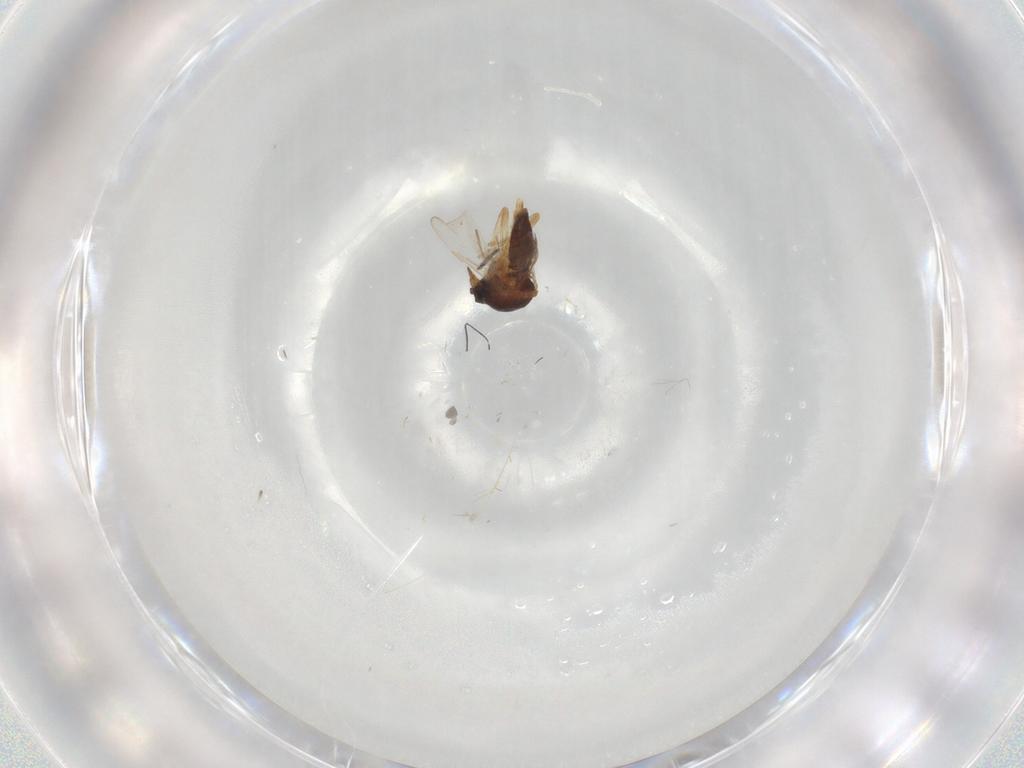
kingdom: Animalia
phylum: Arthropoda
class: Insecta
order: Diptera
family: Sciaridae
